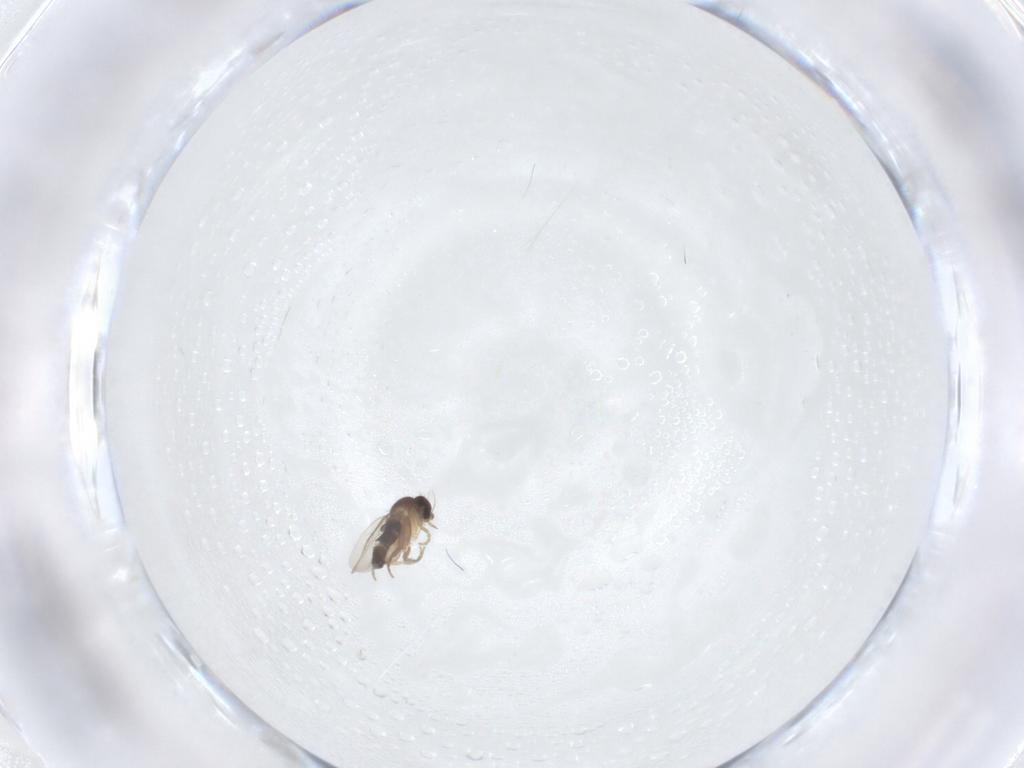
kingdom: Animalia
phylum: Arthropoda
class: Insecta
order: Diptera
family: Phoridae
